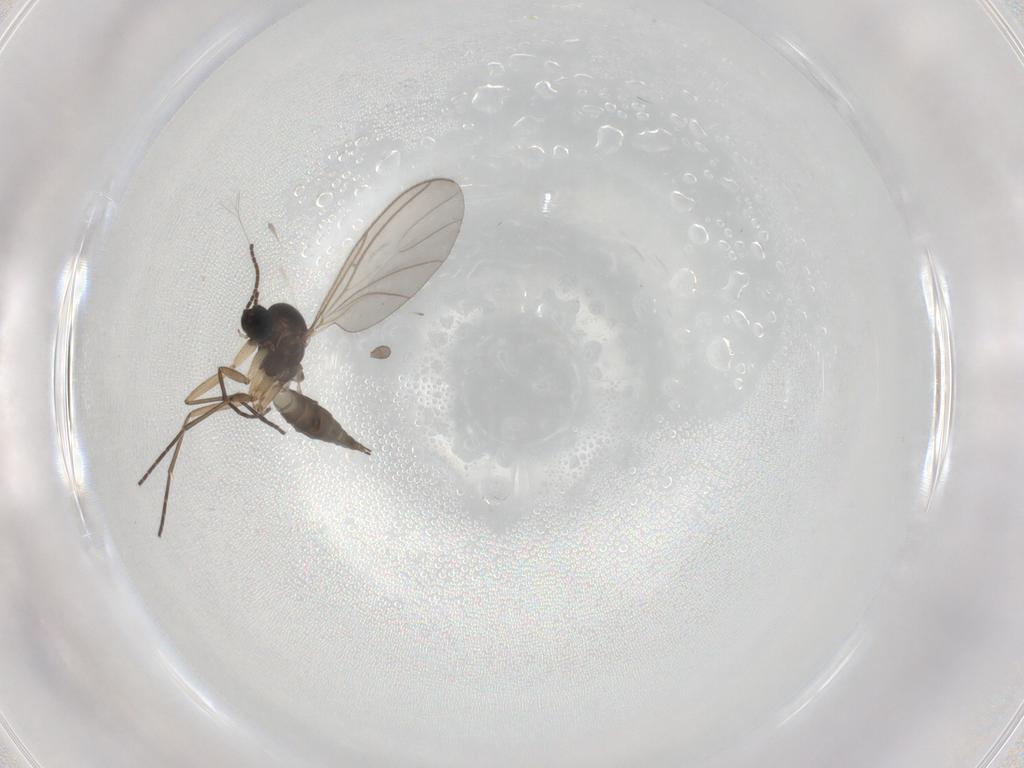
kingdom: Animalia
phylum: Arthropoda
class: Insecta
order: Diptera
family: Sciaridae
